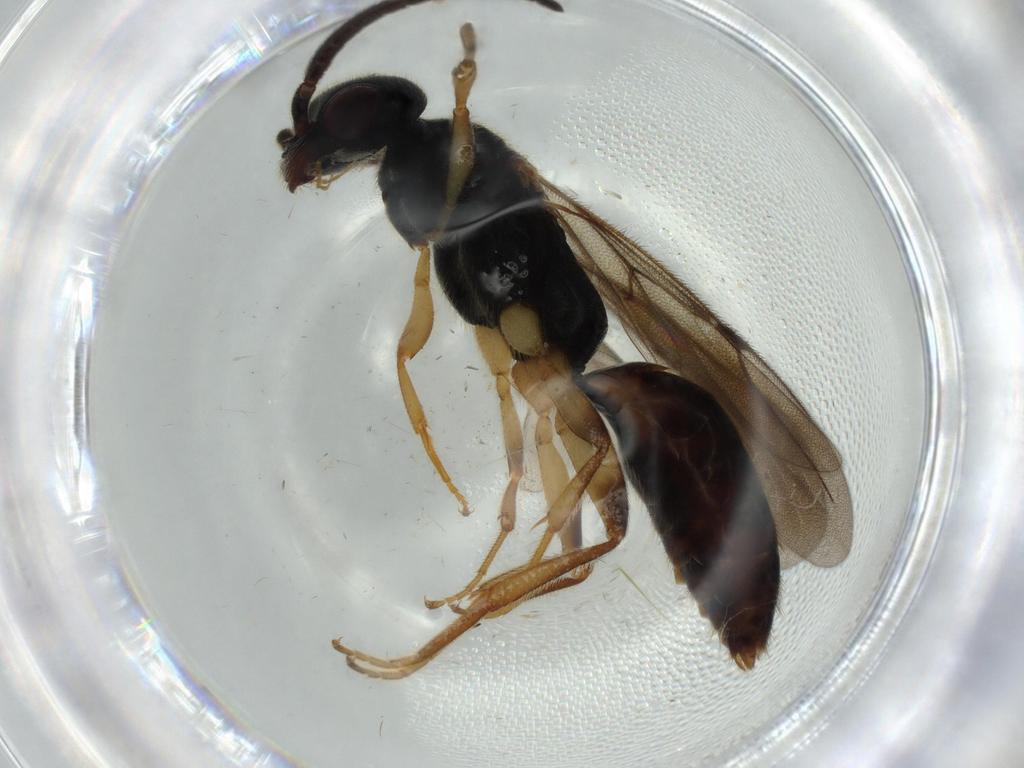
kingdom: Animalia
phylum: Arthropoda
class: Insecta
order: Hymenoptera
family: Bethylidae
